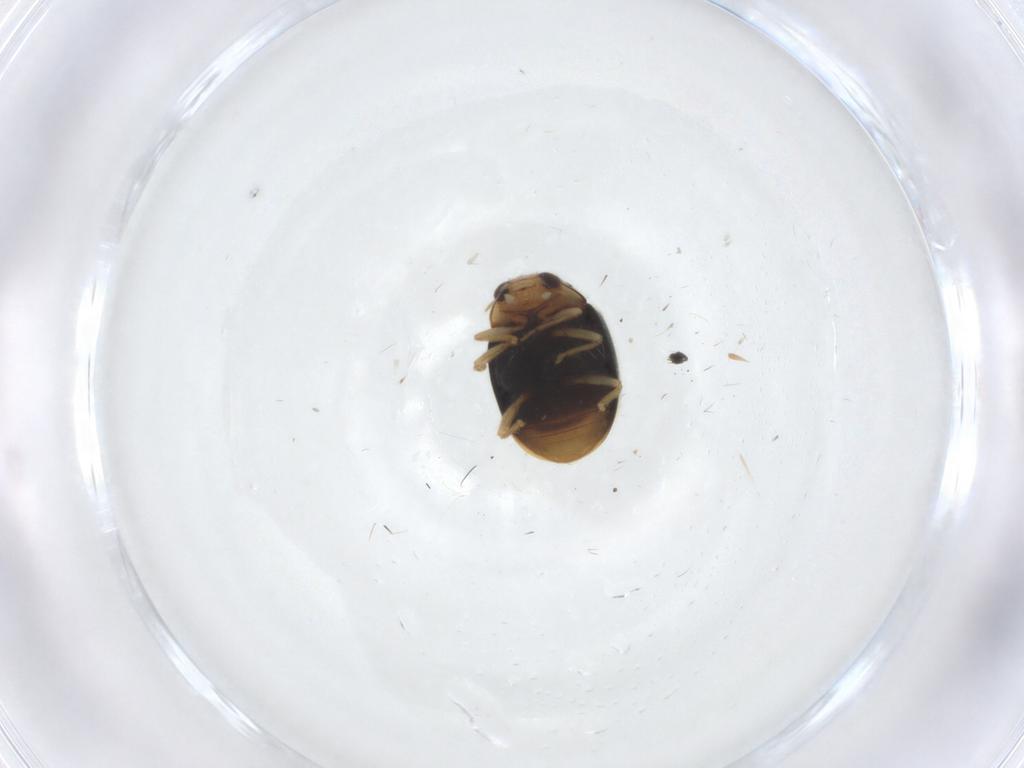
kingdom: Animalia
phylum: Arthropoda
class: Insecta
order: Coleoptera
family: Coccinellidae
